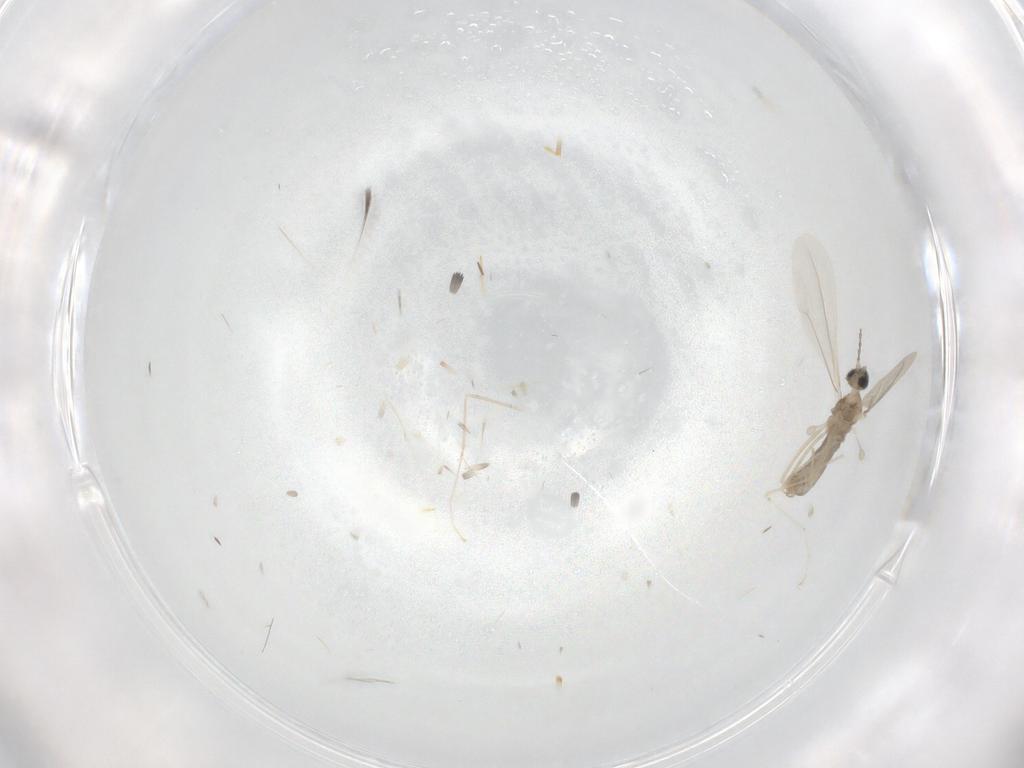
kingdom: Animalia
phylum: Arthropoda
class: Insecta
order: Diptera
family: Cecidomyiidae
